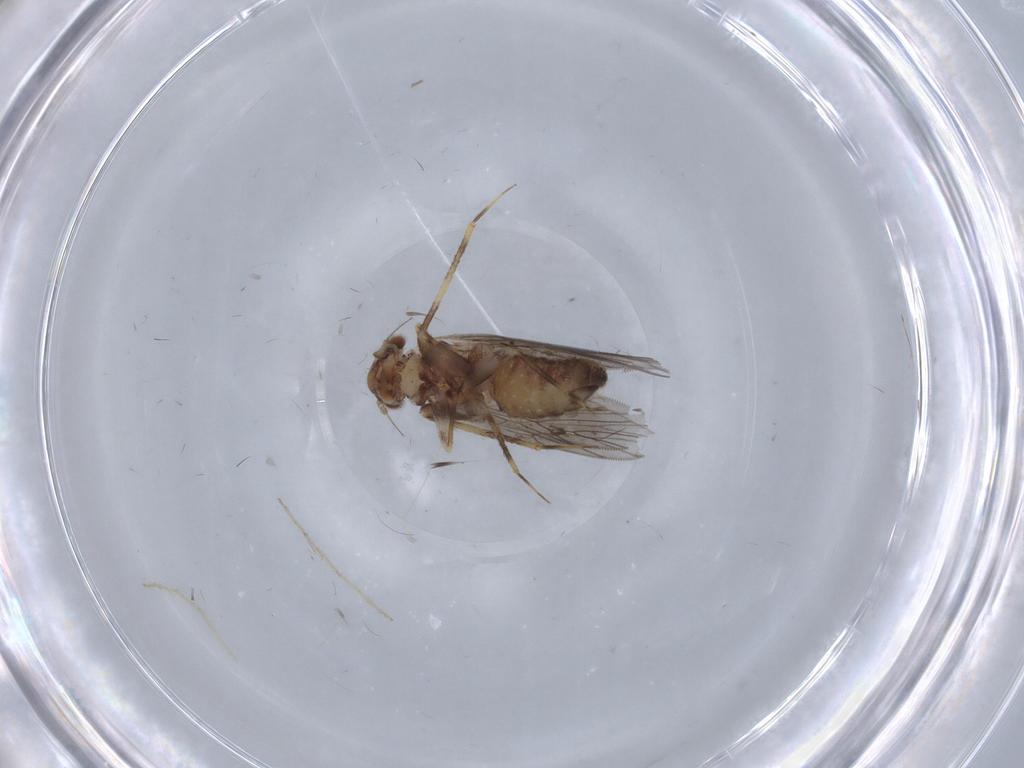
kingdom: Animalia
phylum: Arthropoda
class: Insecta
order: Psocodea
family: Lepidopsocidae
